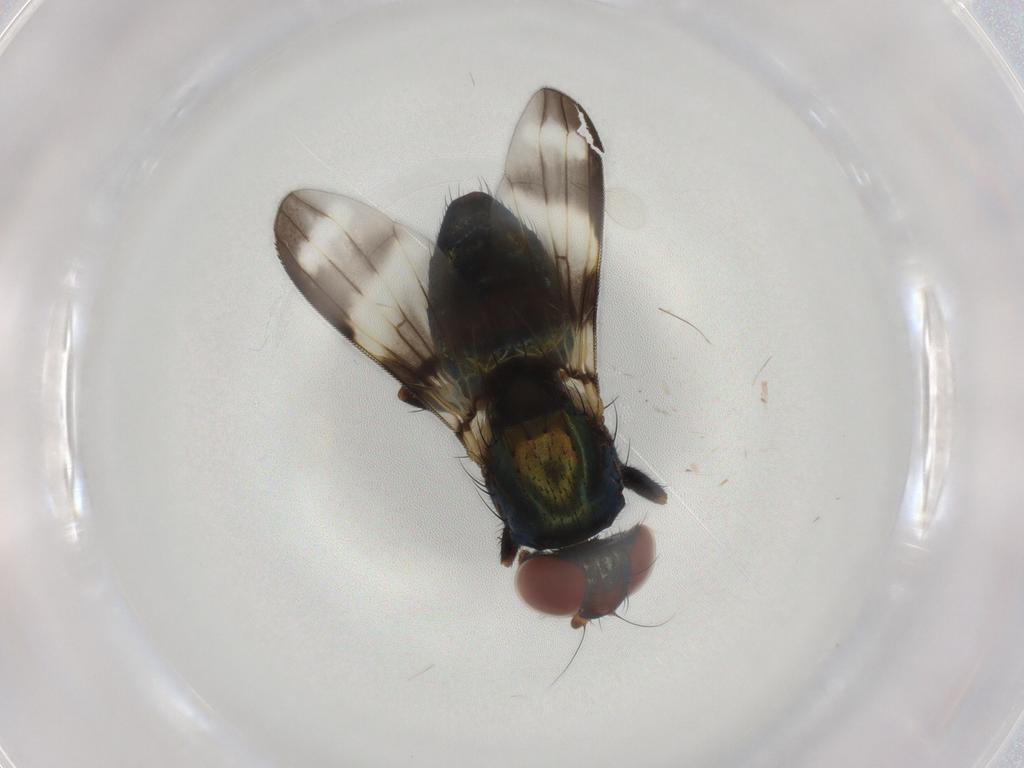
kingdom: Animalia
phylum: Arthropoda
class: Insecta
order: Diptera
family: Ulidiidae
